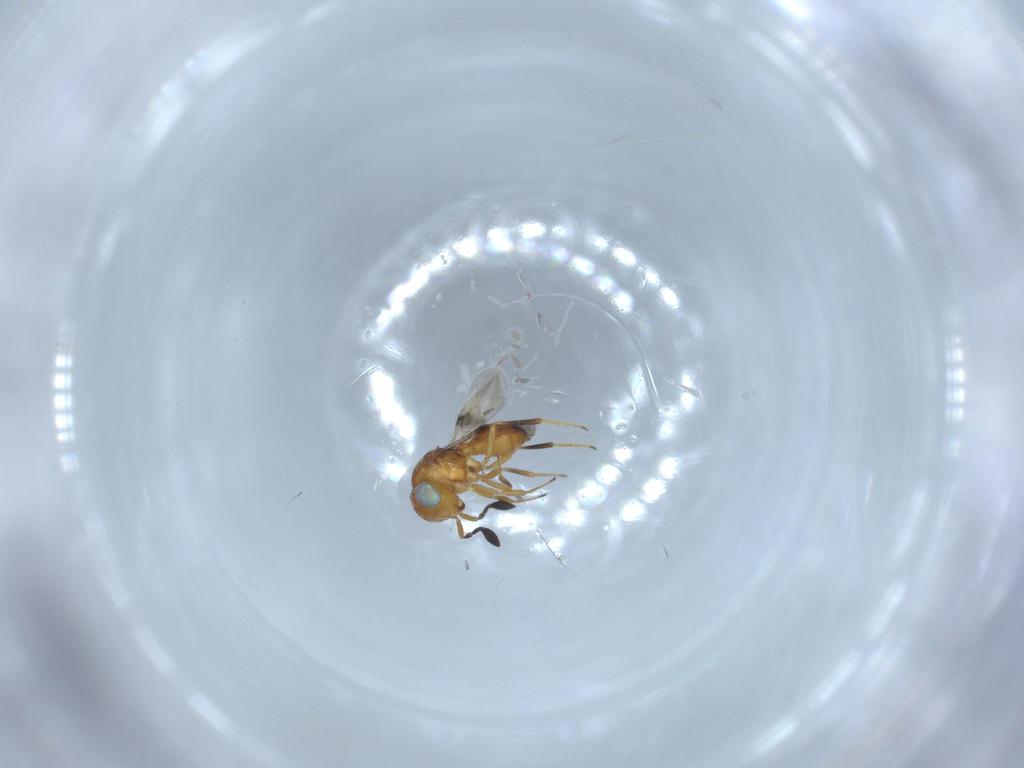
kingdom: Animalia
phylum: Arthropoda
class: Insecta
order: Hymenoptera
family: Scelionidae
